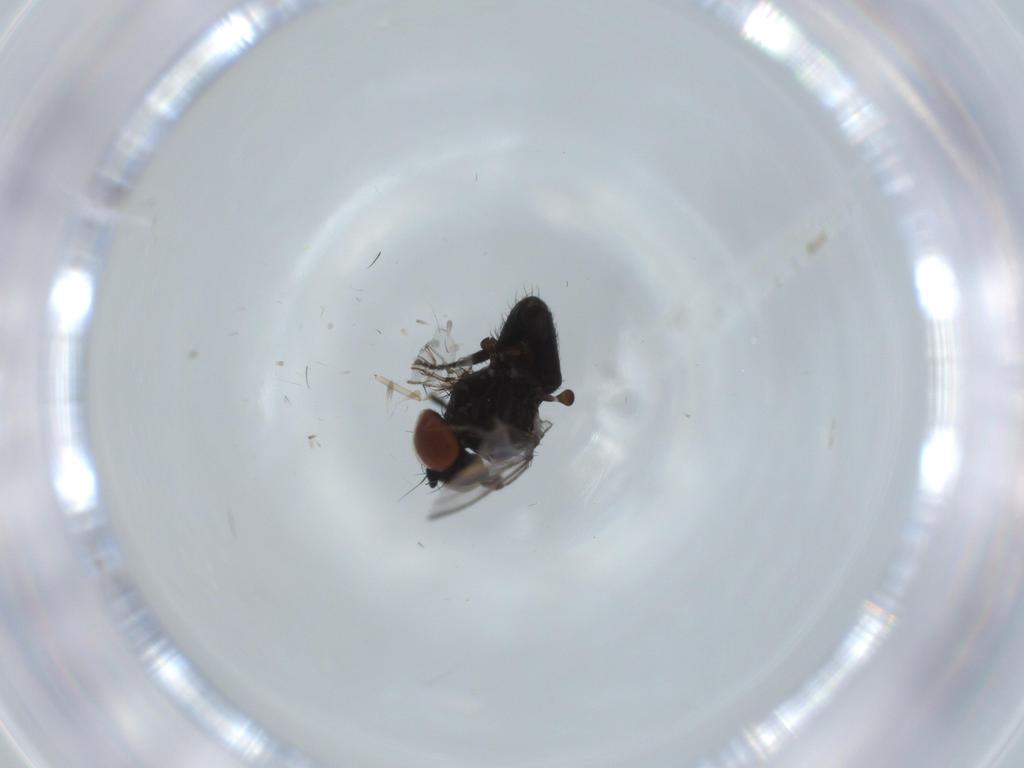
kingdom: Animalia
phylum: Arthropoda
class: Insecta
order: Diptera
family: Milichiidae
